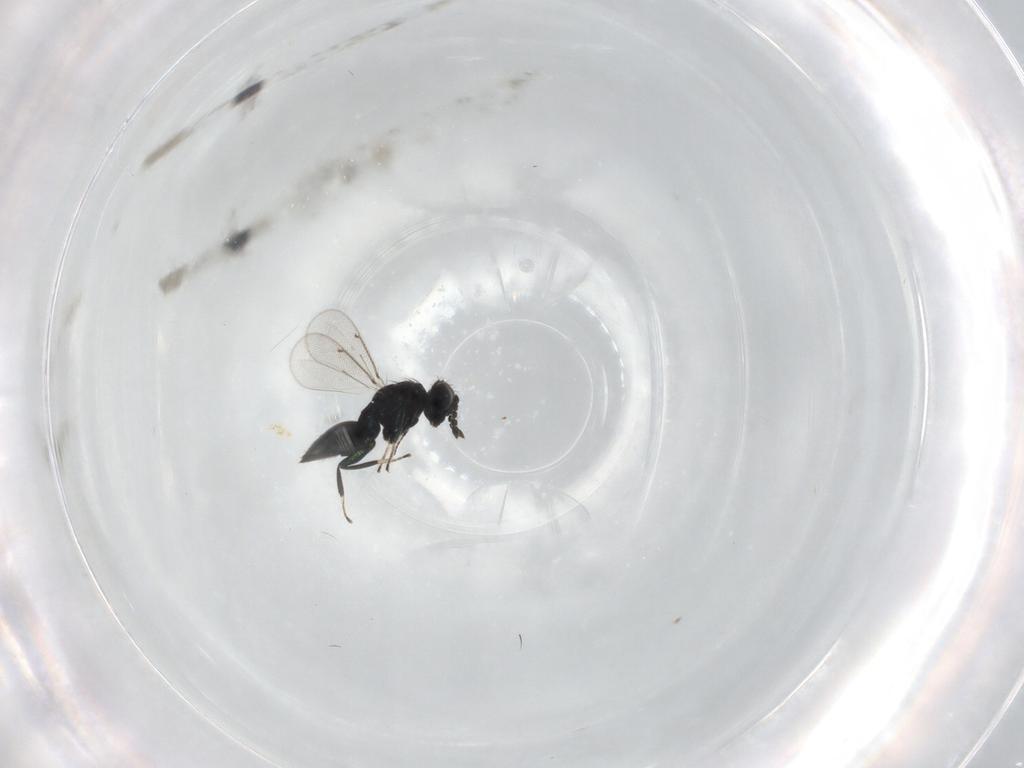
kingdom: Animalia
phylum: Arthropoda
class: Insecta
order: Hymenoptera
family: Eulophidae
